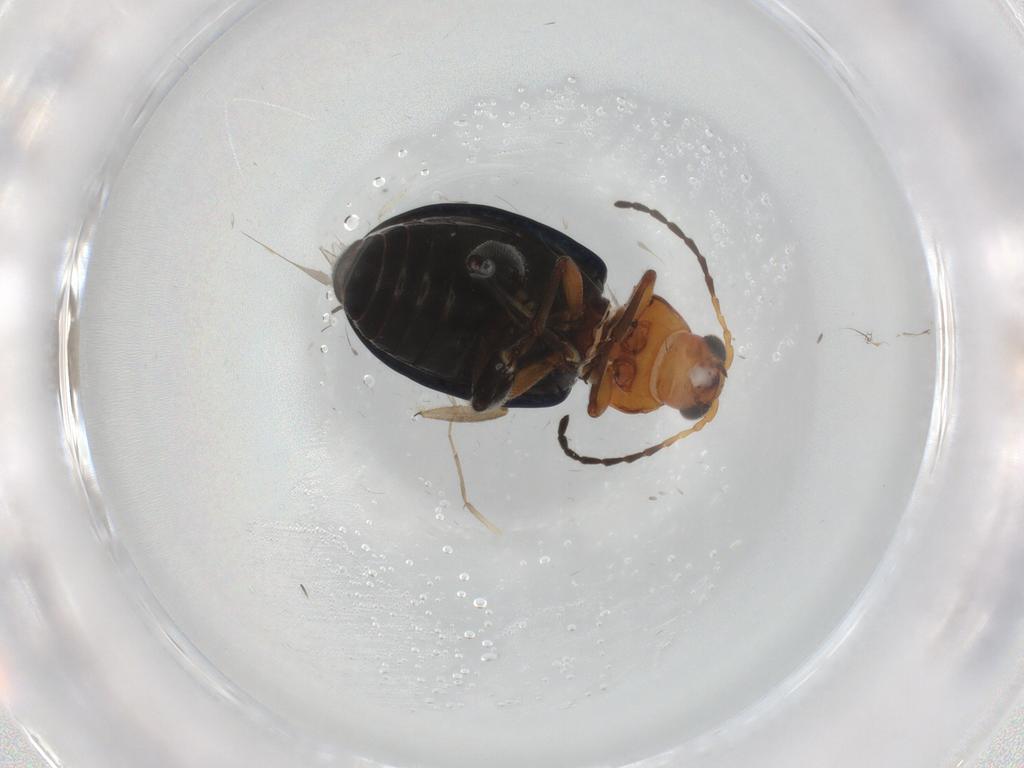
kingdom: Animalia
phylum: Arthropoda
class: Insecta
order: Coleoptera
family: Chrysomelidae
